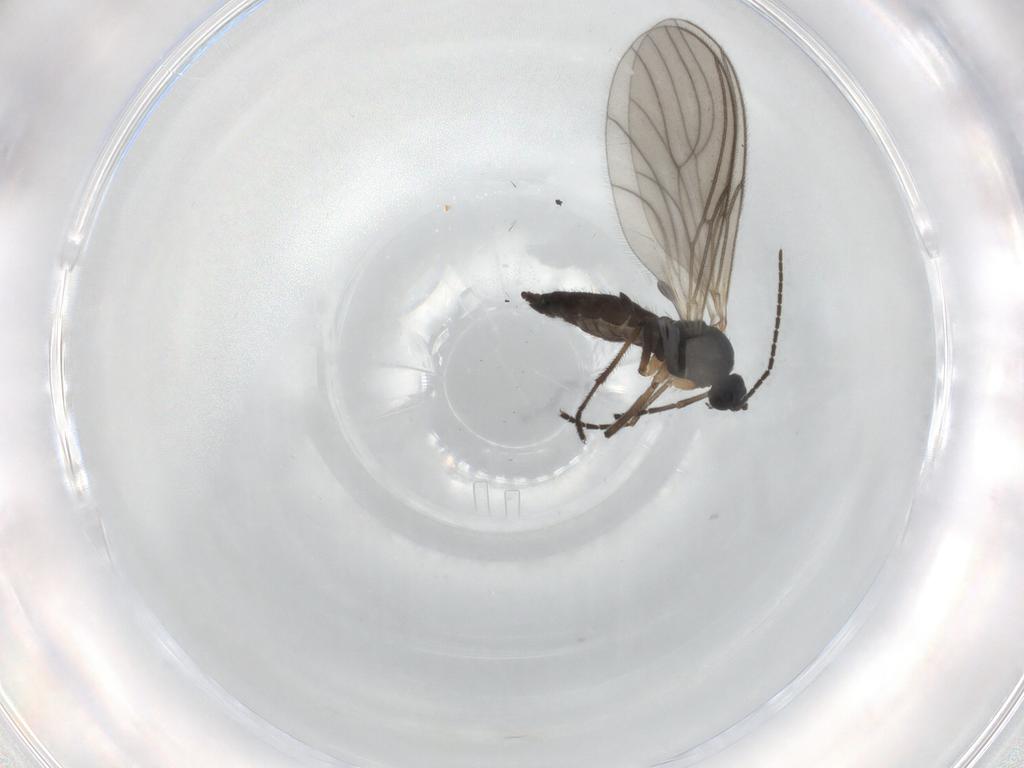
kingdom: Animalia
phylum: Arthropoda
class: Insecta
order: Diptera
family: Sciaridae
